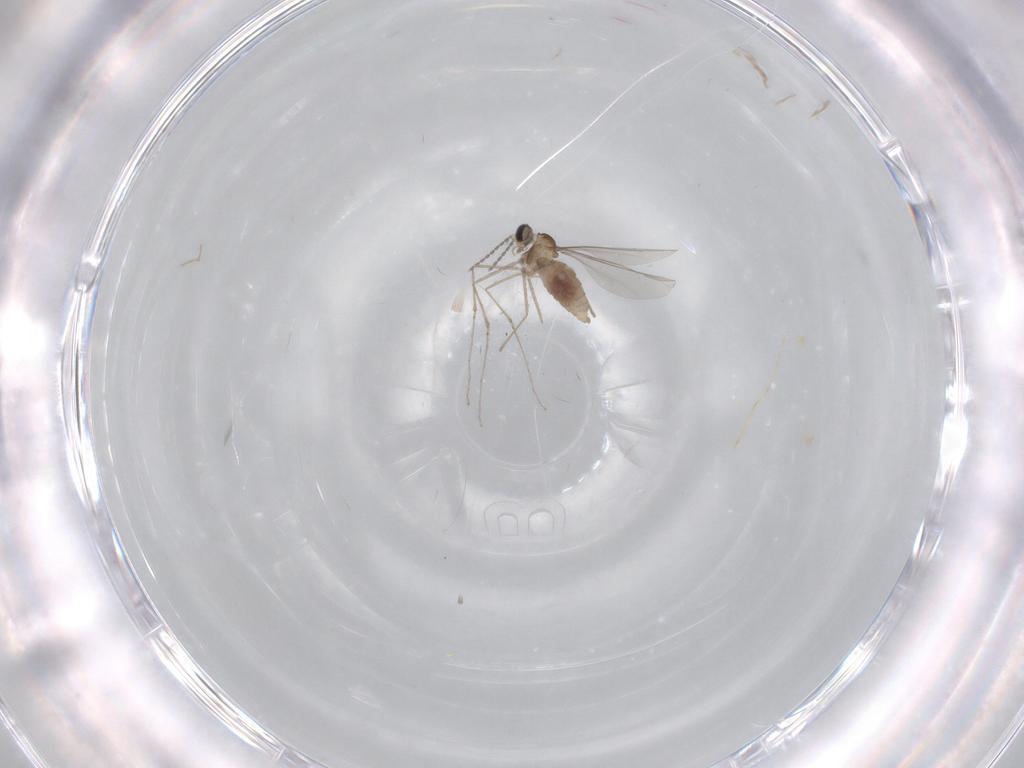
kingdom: Animalia
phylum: Arthropoda
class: Insecta
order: Diptera
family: Cecidomyiidae
